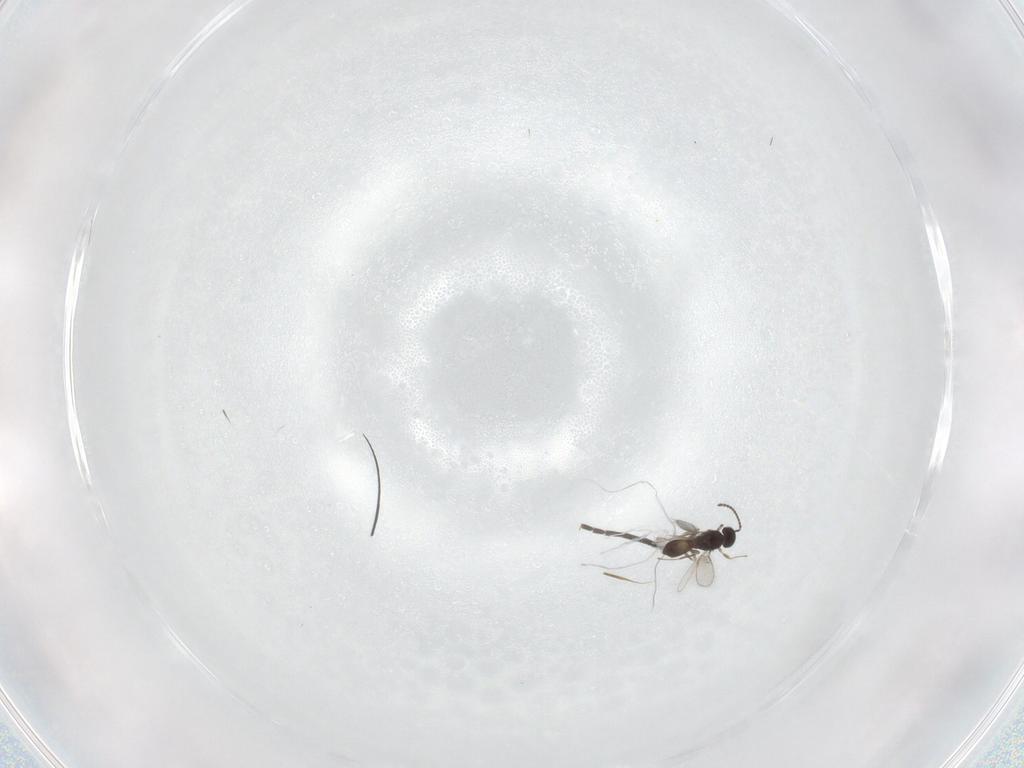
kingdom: Animalia
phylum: Arthropoda
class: Insecta
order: Hymenoptera
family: Scelionidae
